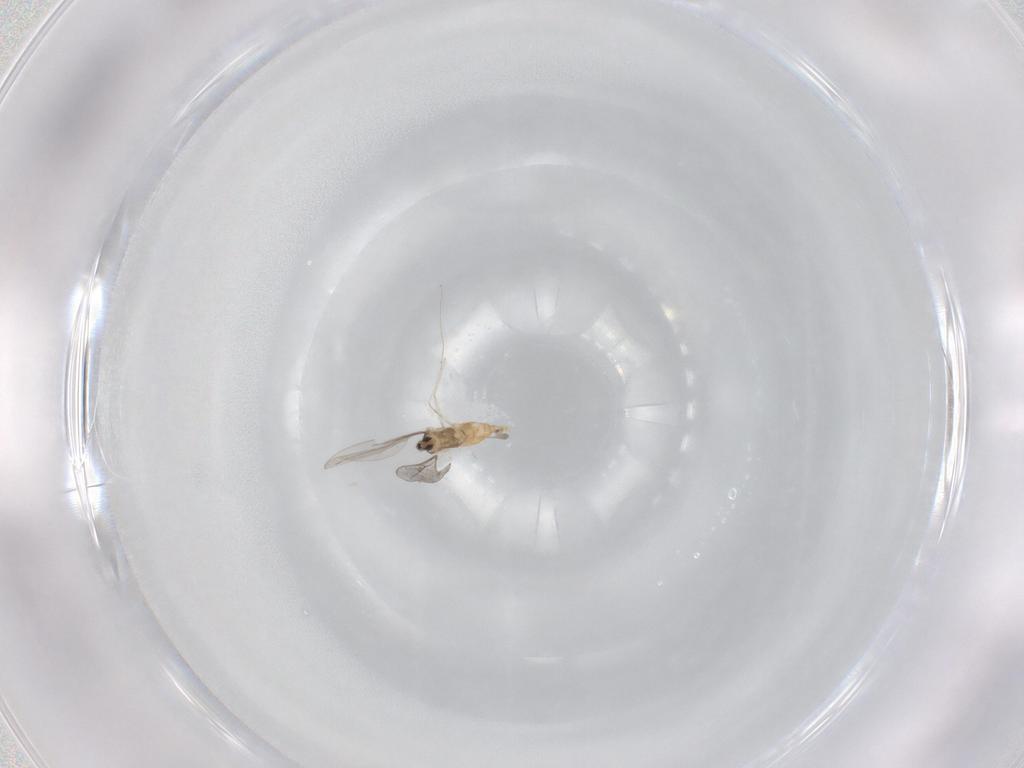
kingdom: Animalia
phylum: Arthropoda
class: Insecta
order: Diptera
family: Cecidomyiidae
